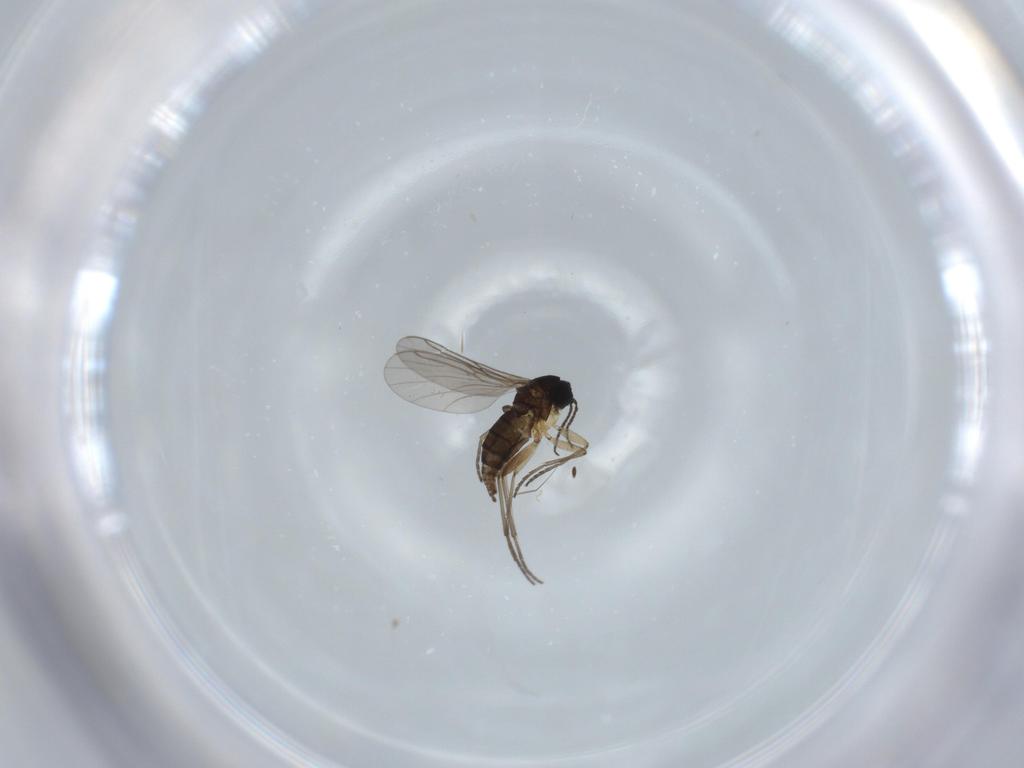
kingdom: Animalia
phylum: Arthropoda
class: Insecta
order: Diptera
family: Sciaridae
